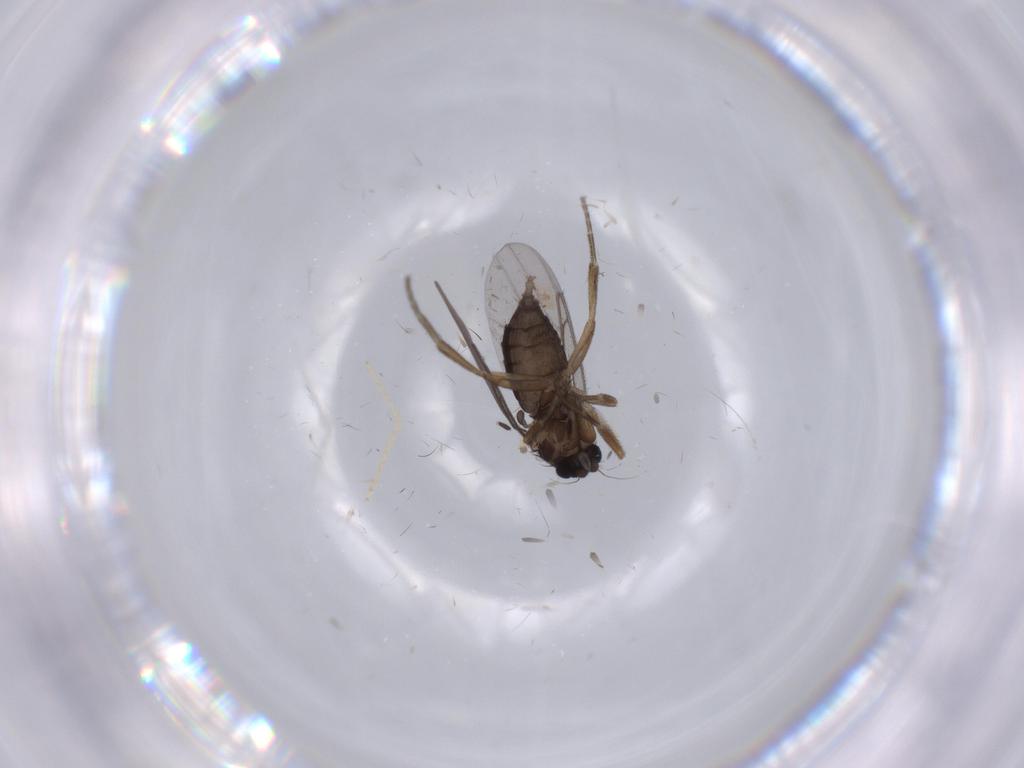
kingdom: Animalia
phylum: Arthropoda
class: Insecta
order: Diptera
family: Chironomidae
